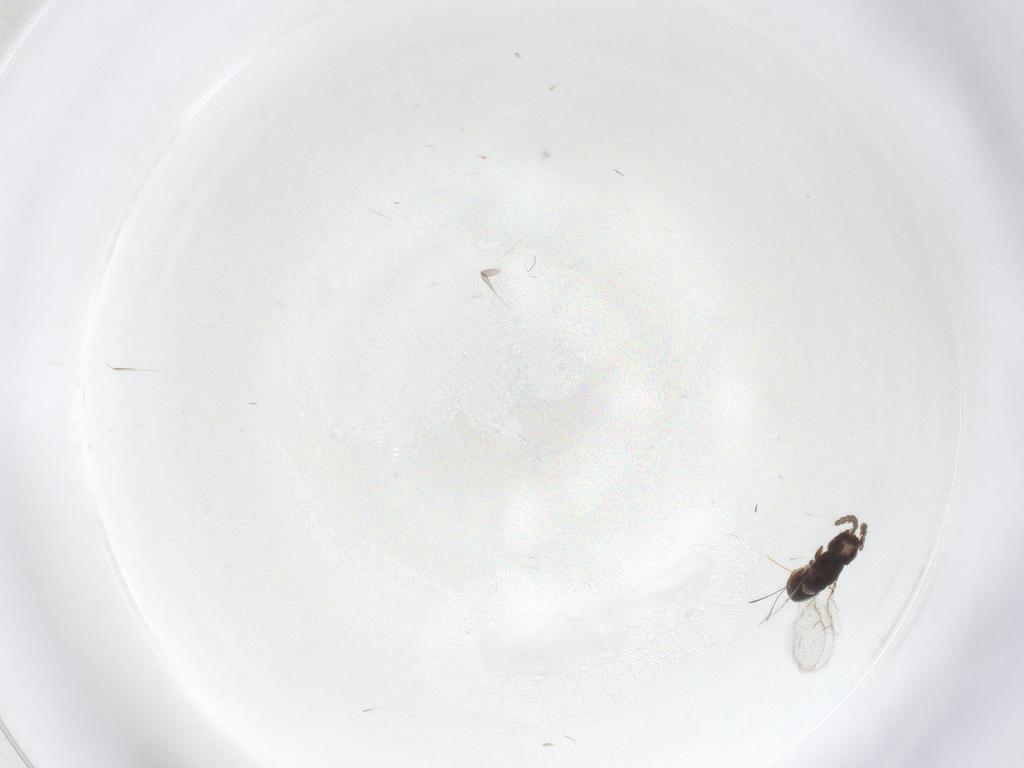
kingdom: Animalia
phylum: Arthropoda
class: Insecta
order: Hymenoptera
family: Agaonidae
